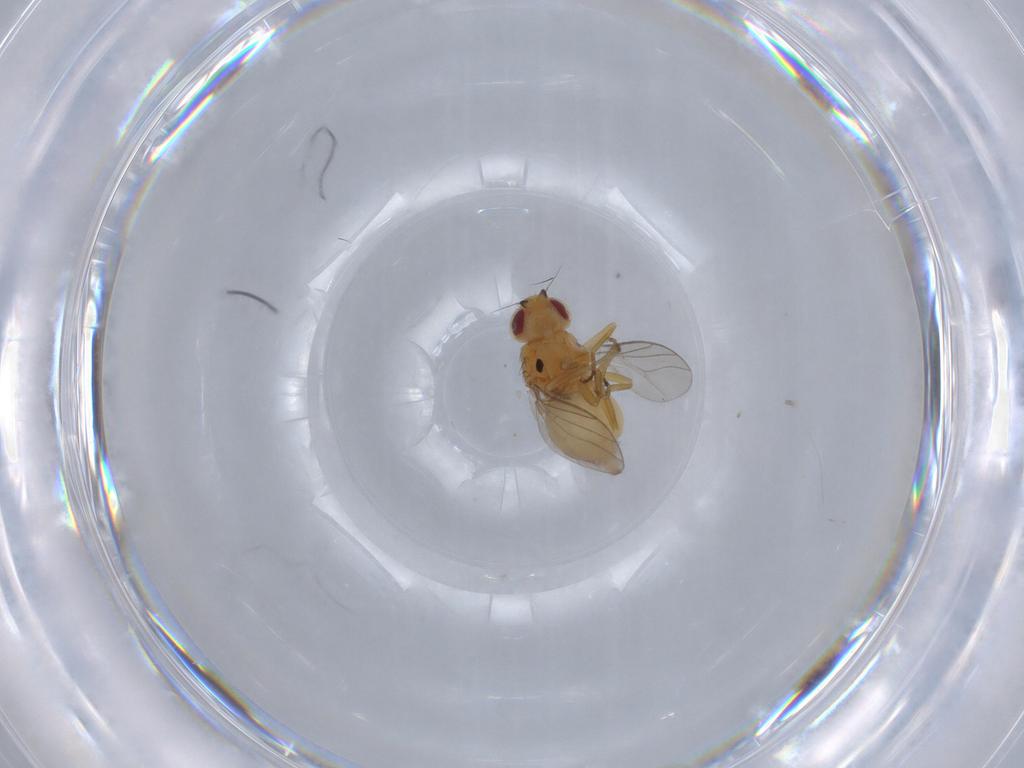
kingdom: Animalia
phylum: Arthropoda
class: Insecta
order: Diptera
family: Chloropidae
